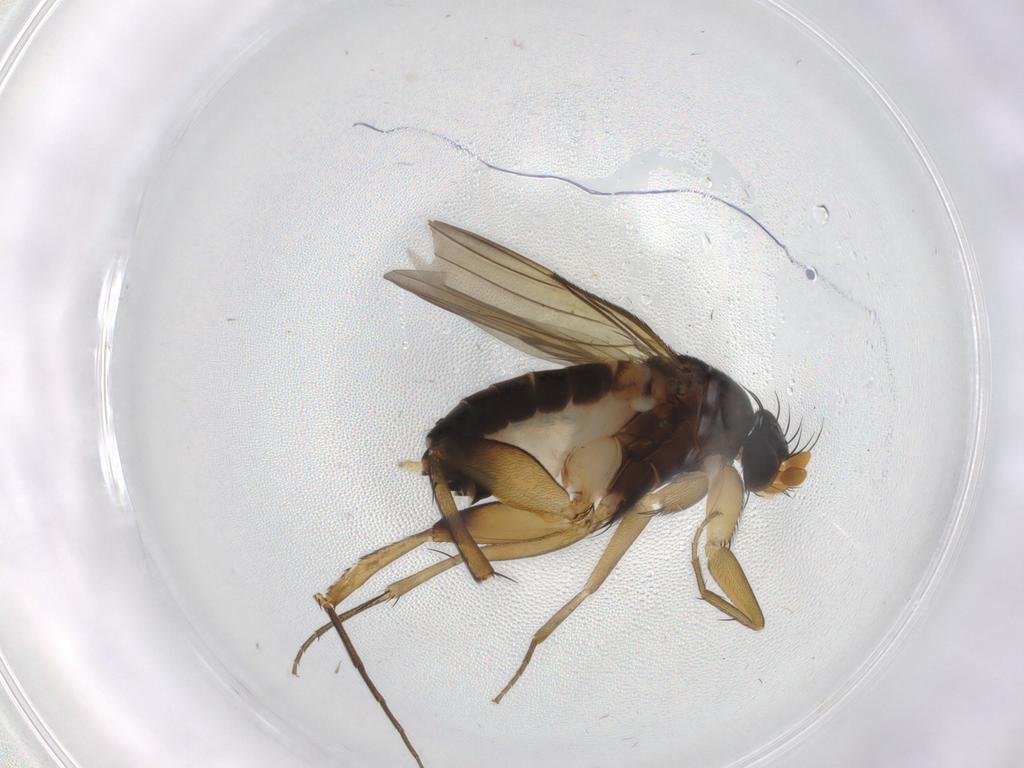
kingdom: Animalia
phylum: Arthropoda
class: Insecta
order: Diptera
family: Phoridae
